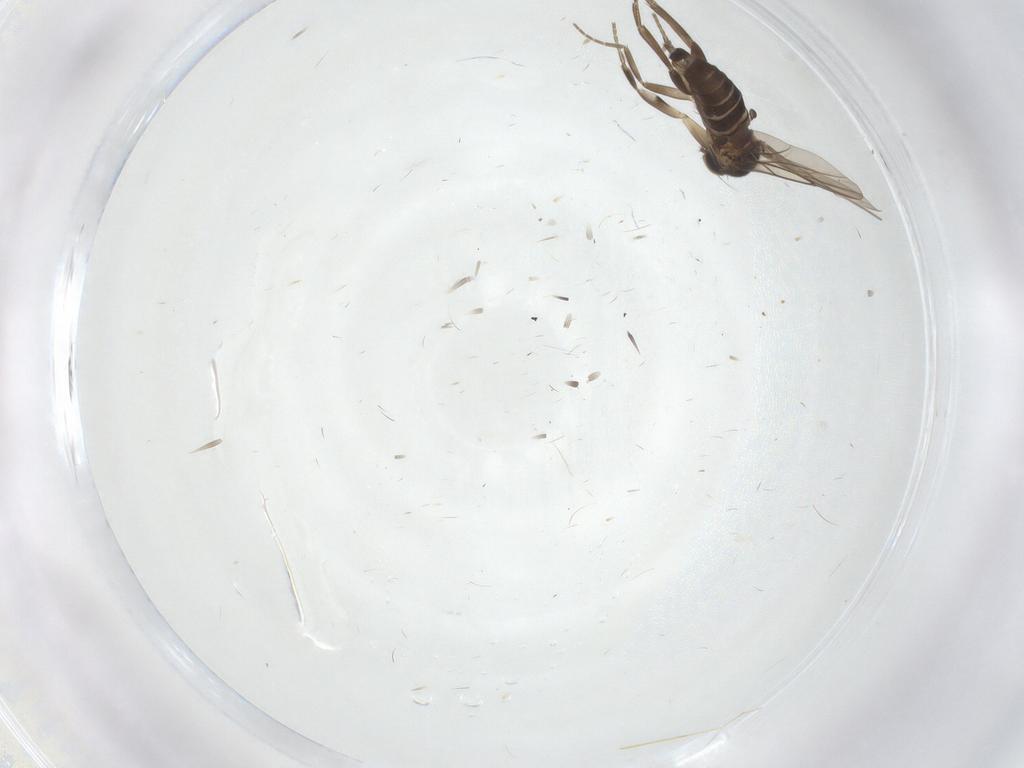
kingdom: Animalia
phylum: Arthropoda
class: Insecta
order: Diptera
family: Phoridae
